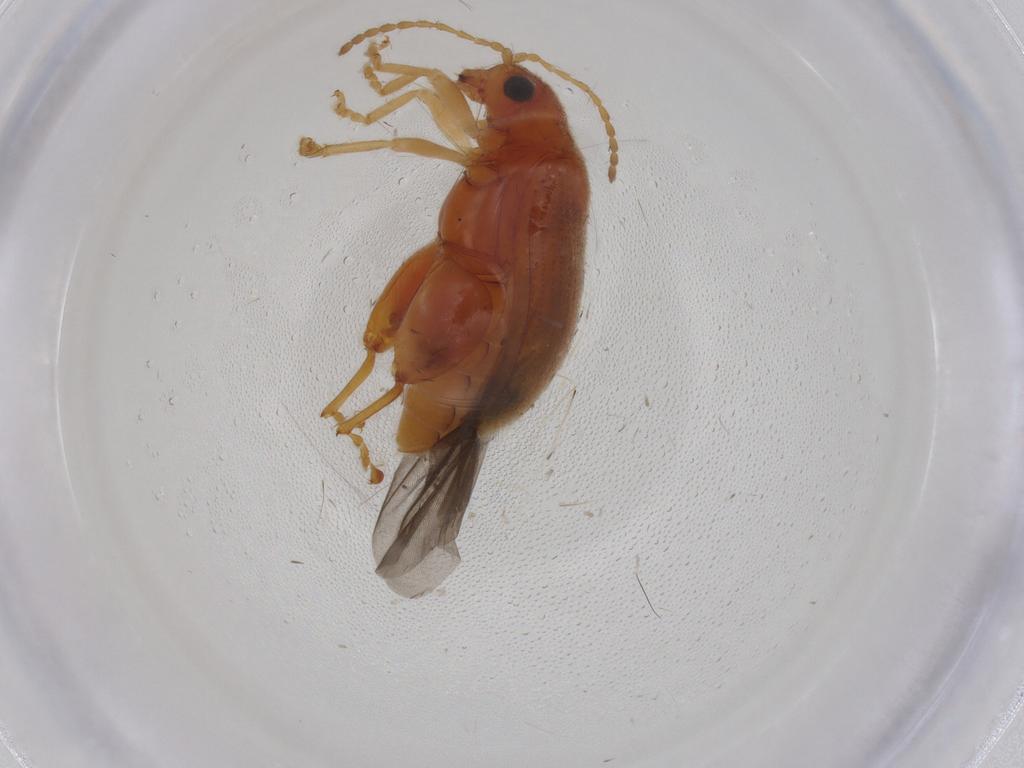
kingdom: Animalia
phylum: Arthropoda
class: Insecta
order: Coleoptera
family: Chrysomelidae
